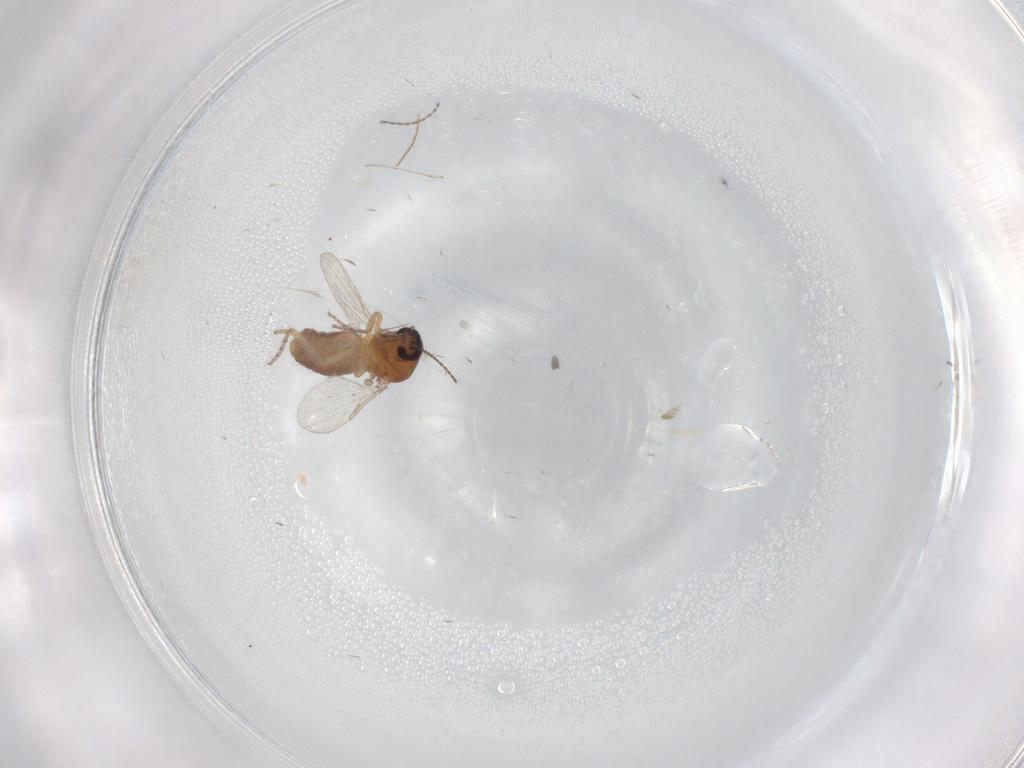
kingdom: Animalia
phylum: Arthropoda
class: Insecta
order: Diptera
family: Ceratopogonidae
